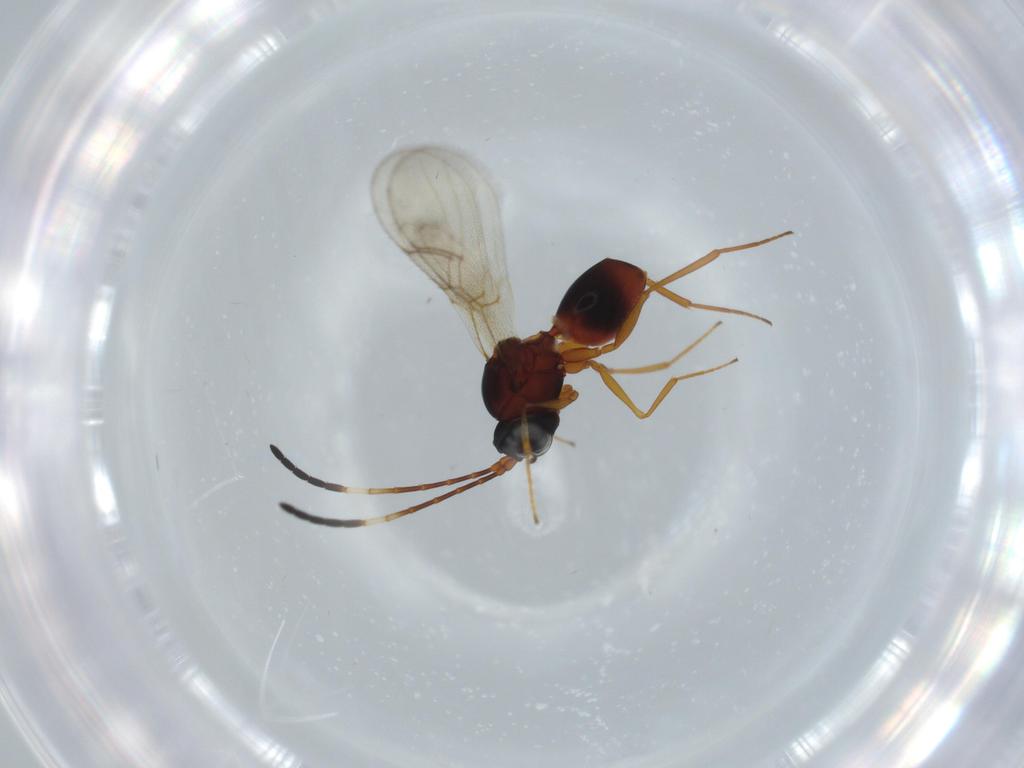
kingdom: Animalia
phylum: Arthropoda
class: Insecta
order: Hymenoptera
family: Figitidae
